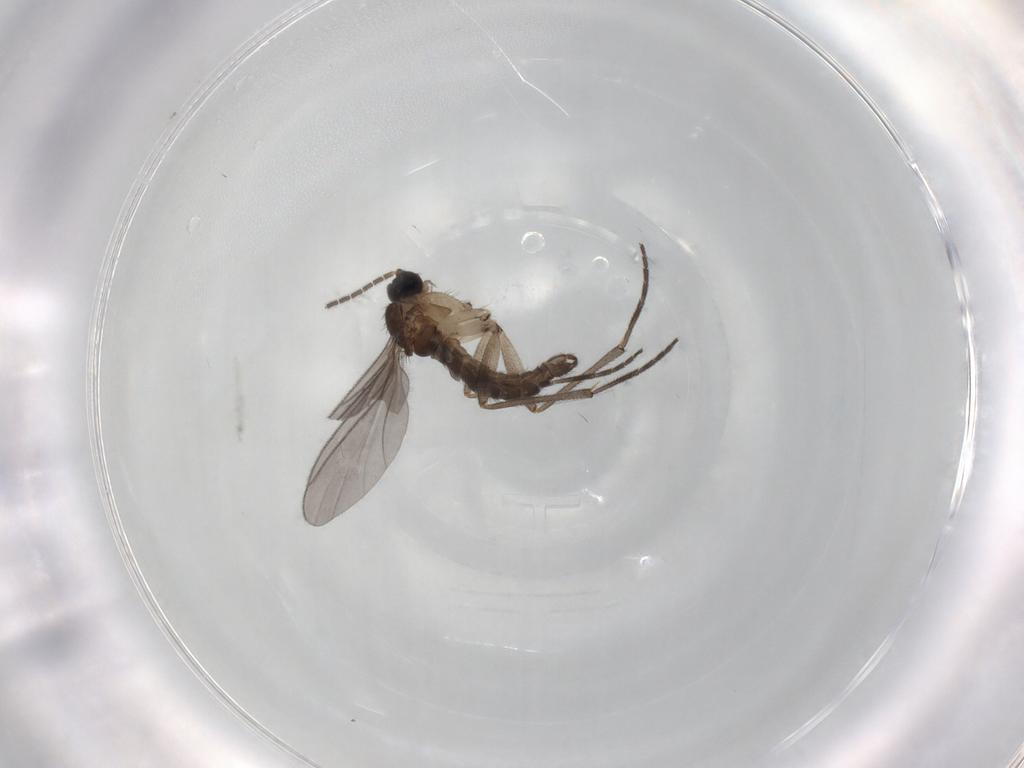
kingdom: Animalia
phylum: Arthropoda
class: Insecta
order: Diptera
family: Sciaridae
